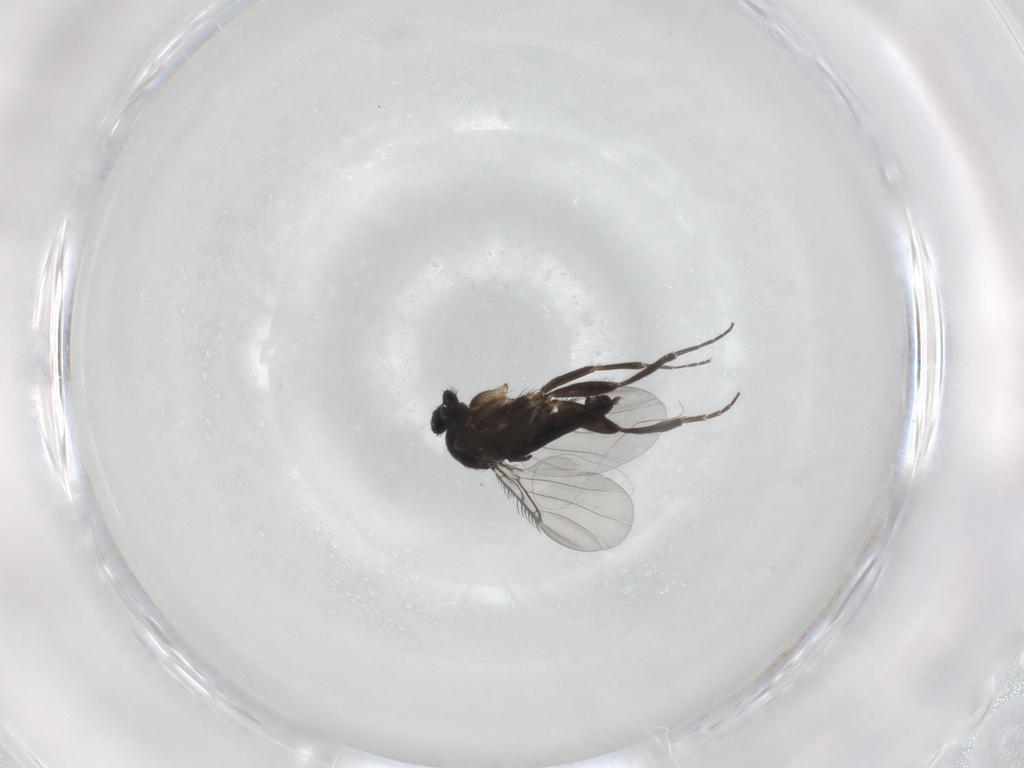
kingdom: Animalia
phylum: Arthropoda
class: Insecta
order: Diptera
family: Phoridae
